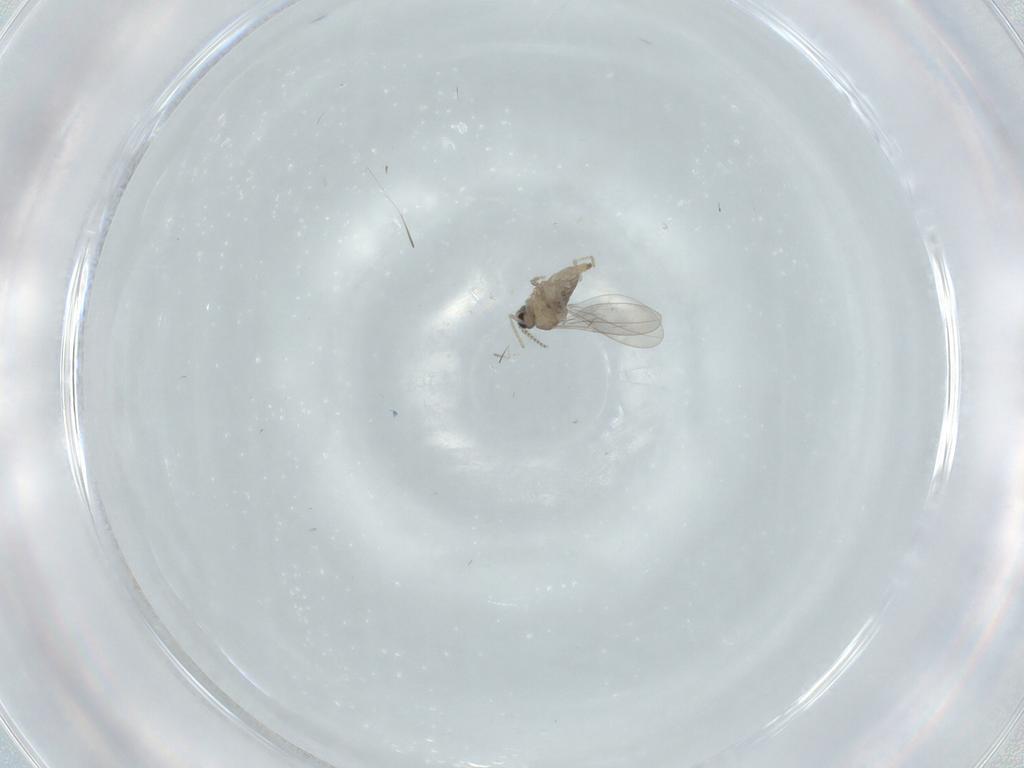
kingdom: Animalia
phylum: Arthropoda
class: Insecta
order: Diptera
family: Cecidomyiidae
